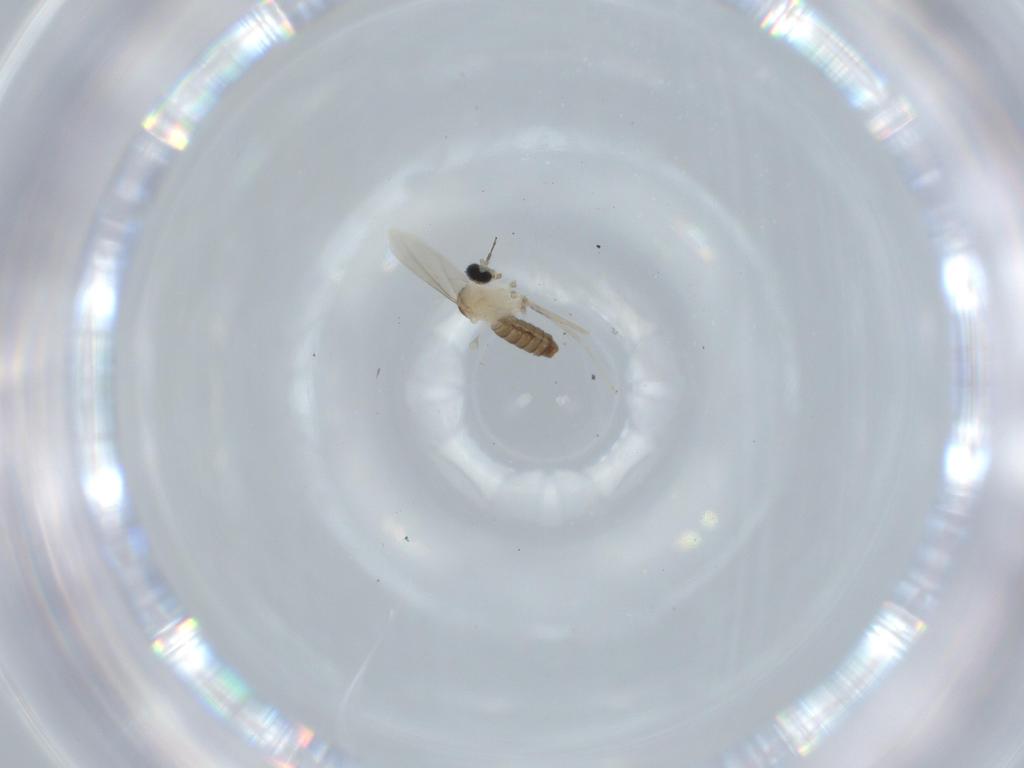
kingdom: Animalia
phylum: Arthropoda
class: Insecta
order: Diptera
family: Cecidomyiidae
